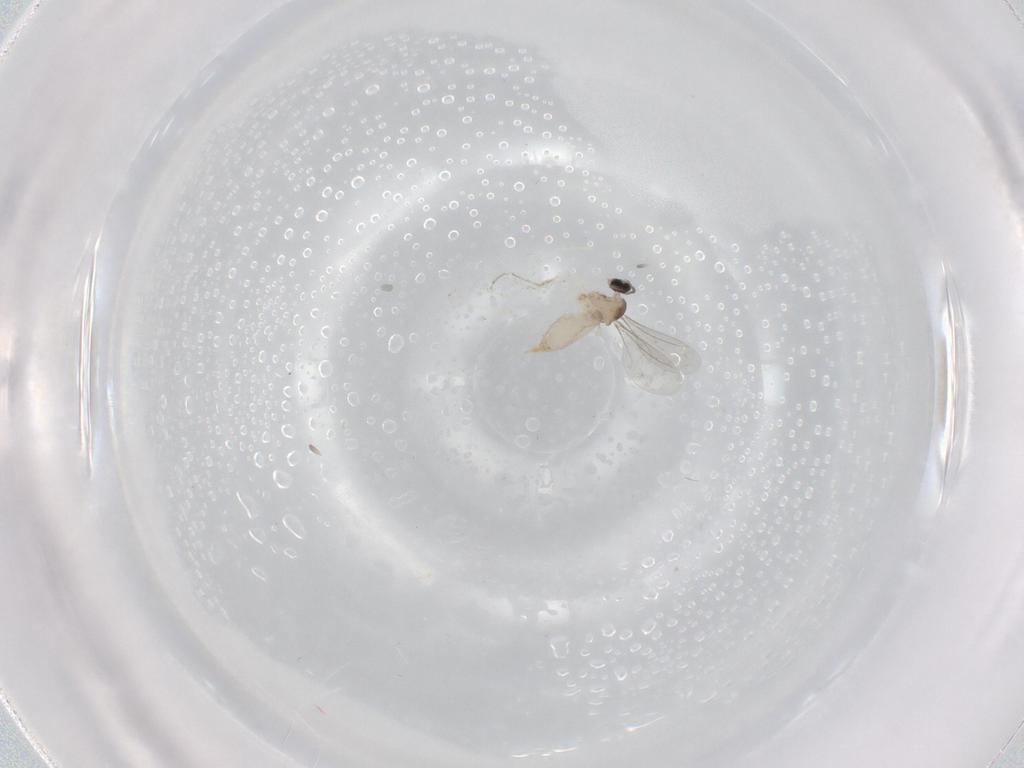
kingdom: Animalia
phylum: Arthropoda
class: Insecta
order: Diptera
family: Cecidomyiidae
